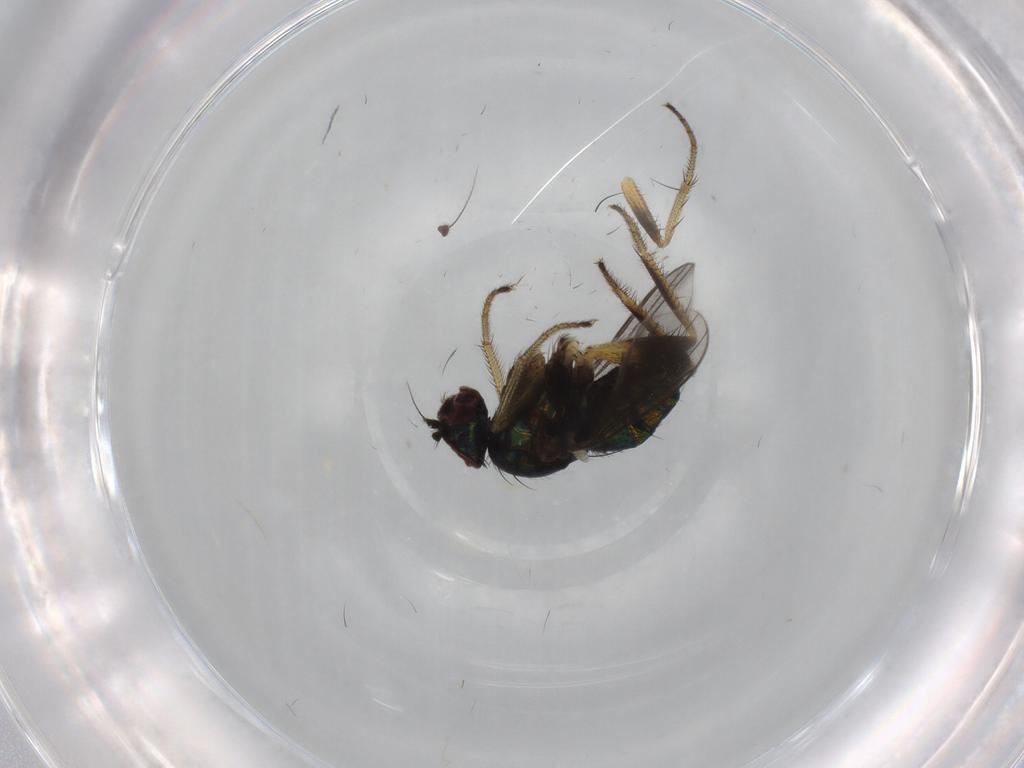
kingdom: Animalia
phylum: Arthropoda
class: Insecta
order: Diptera
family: Dolichopodidae
